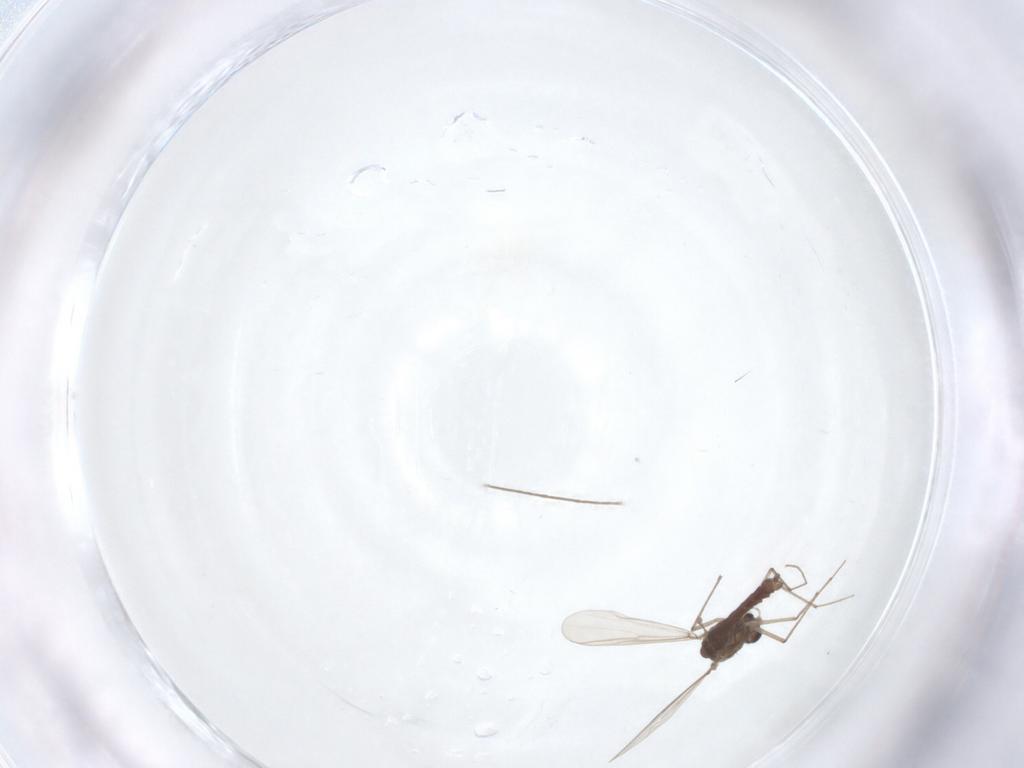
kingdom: Animalia
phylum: Arthropoda
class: Insecta
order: Diptera
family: Chironomidae
